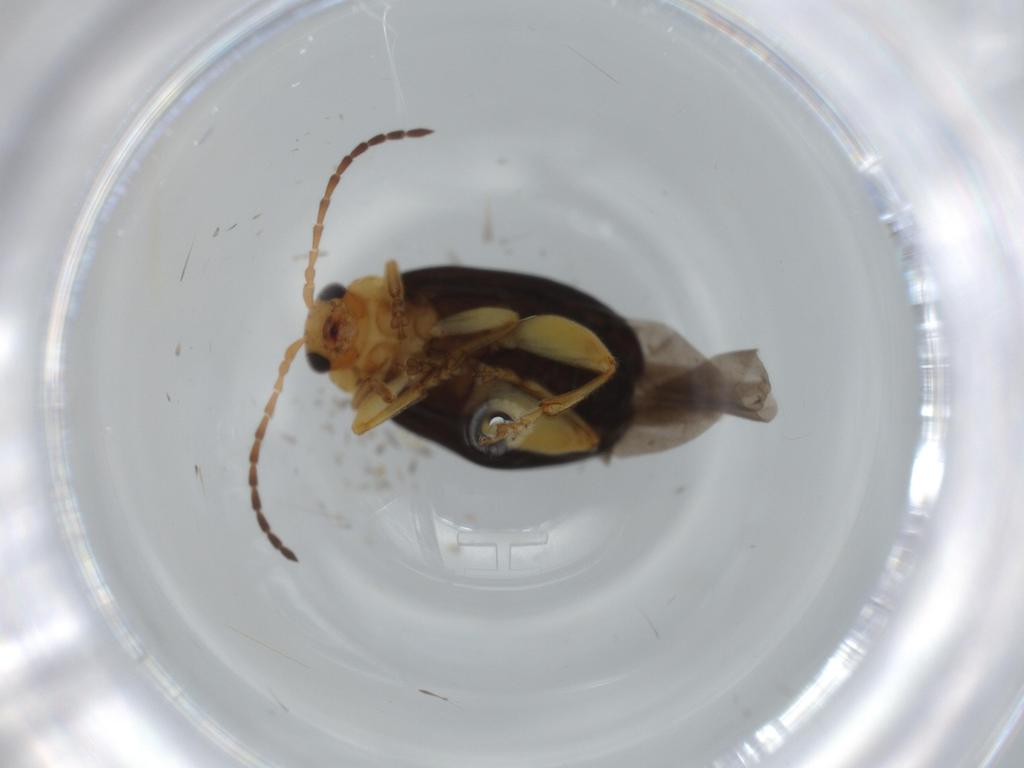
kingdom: Animalia
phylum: Arthropoda
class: Insecta
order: Coleoptera
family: Chrysomelidae
